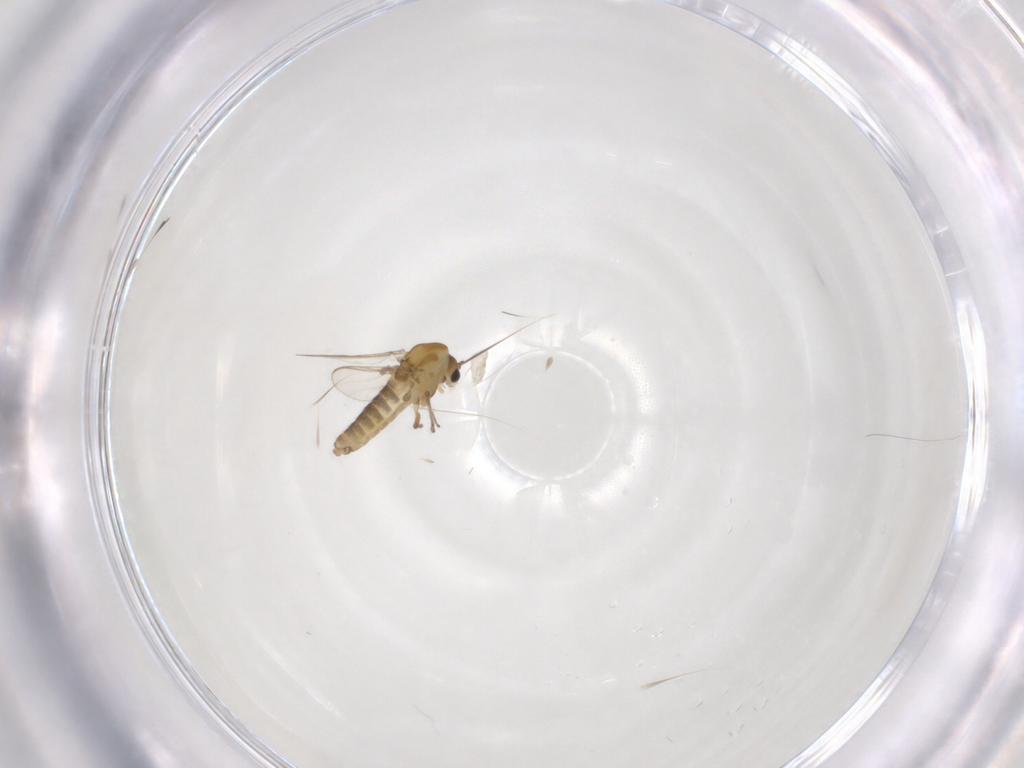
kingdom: Animalia
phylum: Arthropoda
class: Insecta
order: Diptera
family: Chironomidae
